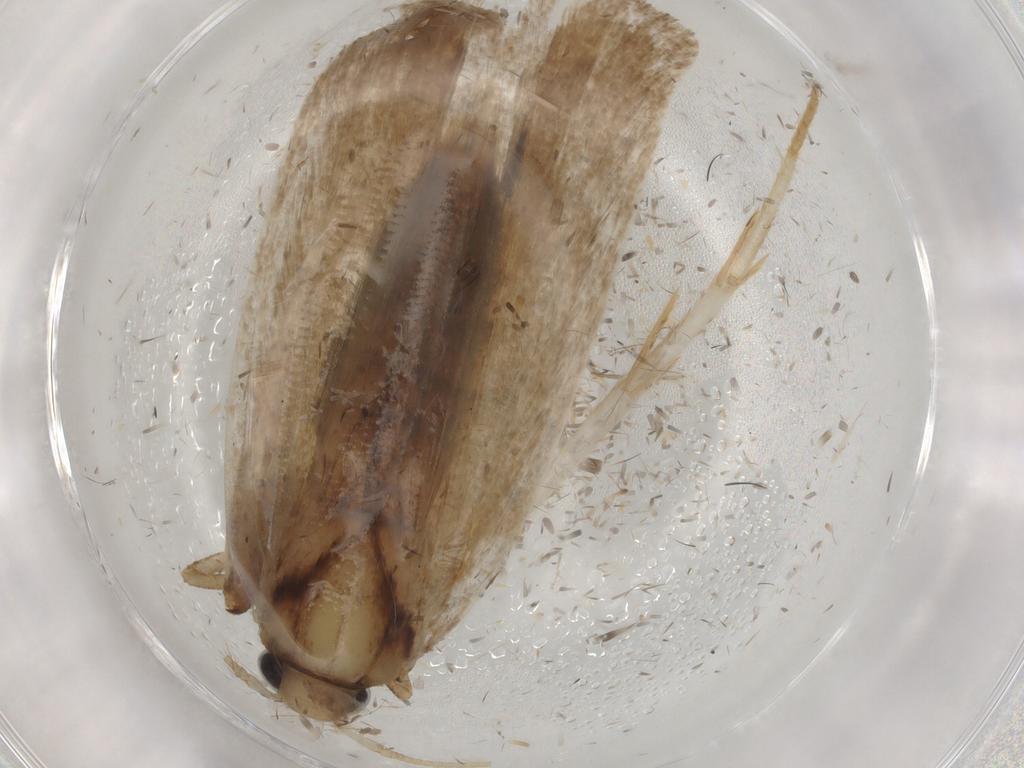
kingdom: Animalia
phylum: Arthropoda
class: Insecta
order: Lepidoptera
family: Autostichidae
